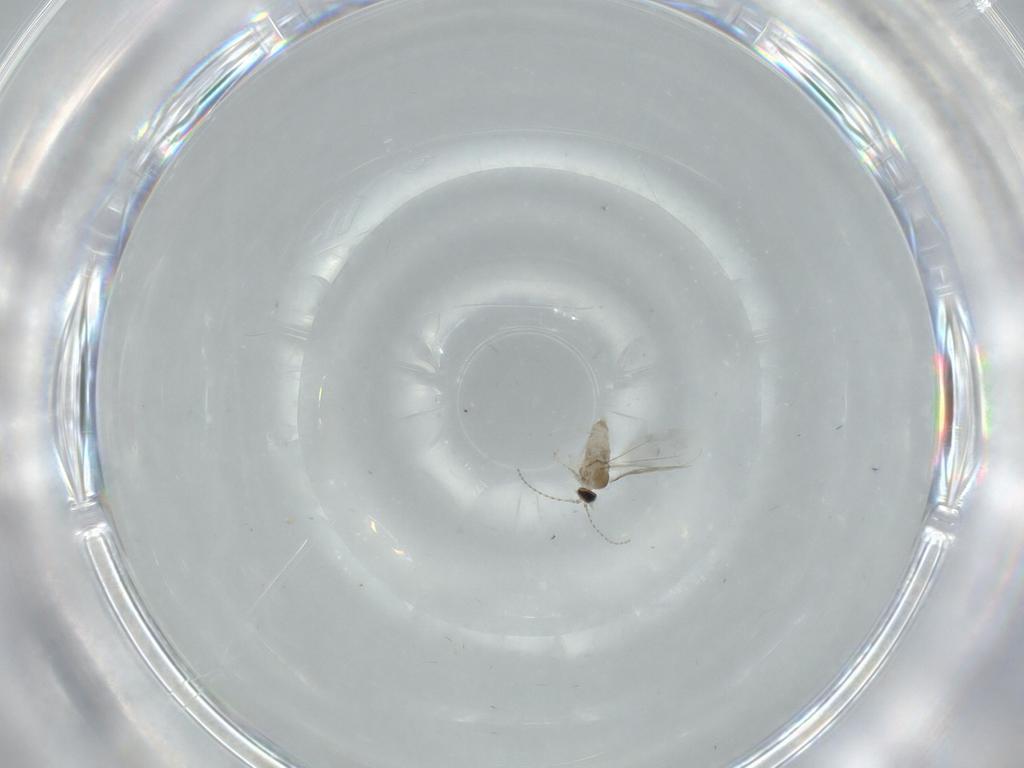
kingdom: Animalia
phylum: Arthropoda
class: Insecta
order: Diptera
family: Cecidomyiidae
